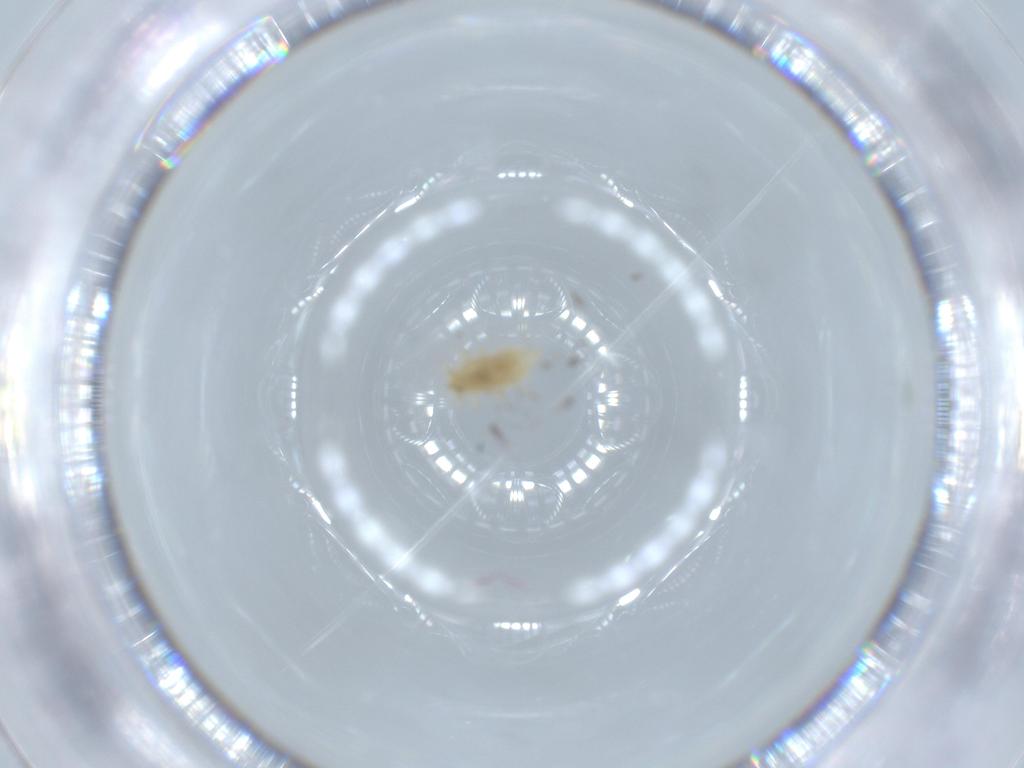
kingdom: Animalia
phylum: Arthropoda
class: Insecta
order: Neuroptera
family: Coniopterygidae
